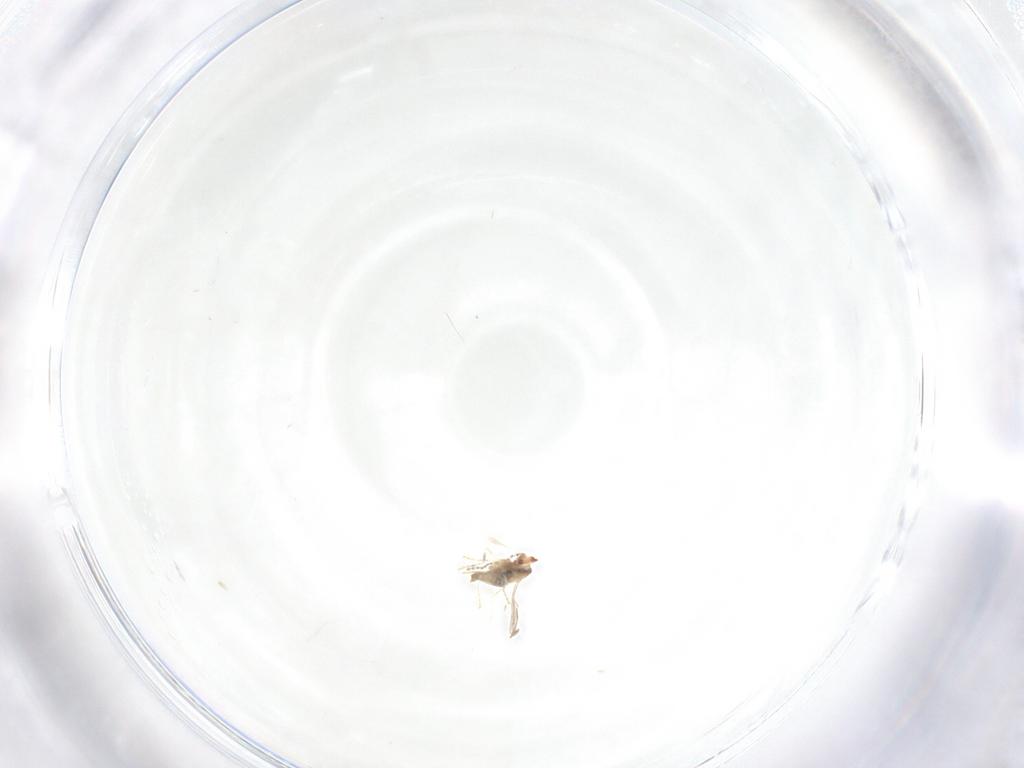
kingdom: Animalia
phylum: Arthropoda
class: Insecta
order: Diptera
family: Cecidomyiidae
